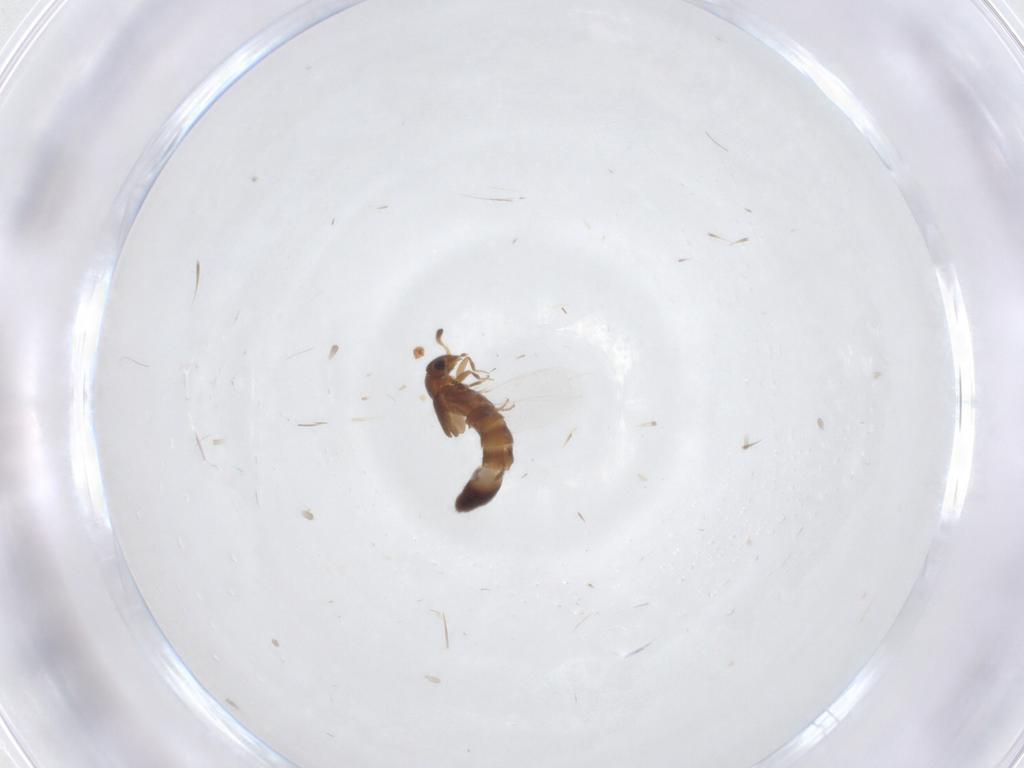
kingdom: Animalia
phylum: Arthropoda
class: Insecta
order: Coleoptera
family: Staphylinidae
